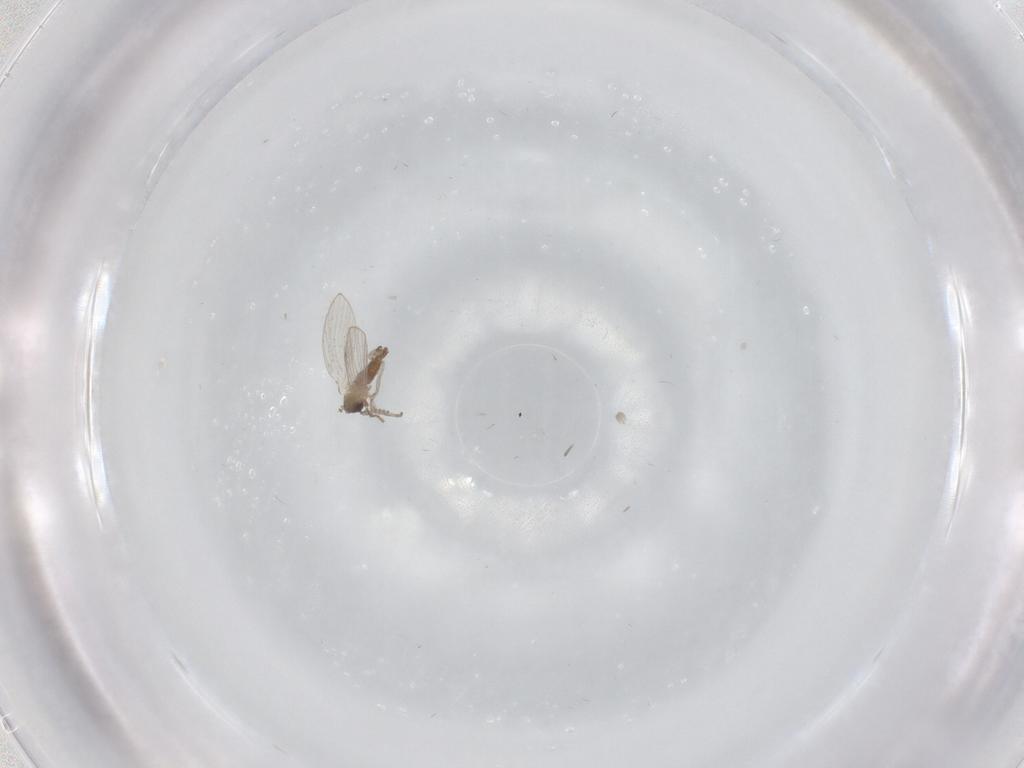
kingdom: Animalia
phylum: Arthropoda
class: Insecta
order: Diptera
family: Psychodidae
